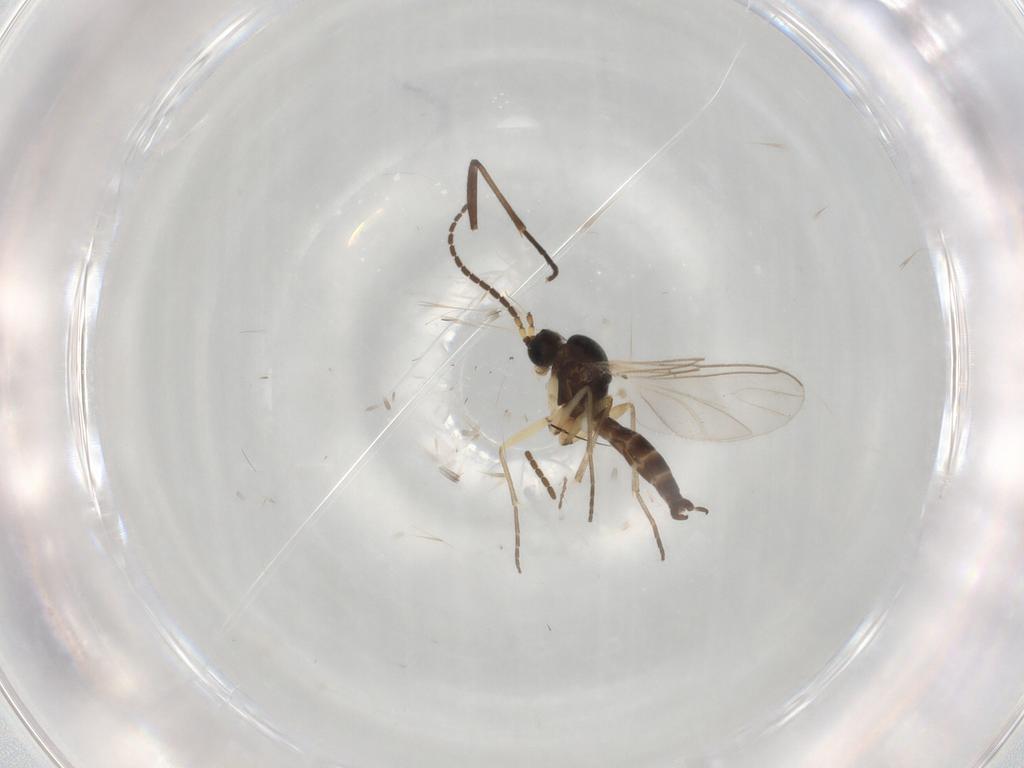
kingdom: Animalia
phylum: Arthropoda
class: Insecta
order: Diptera
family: Sciaridae
